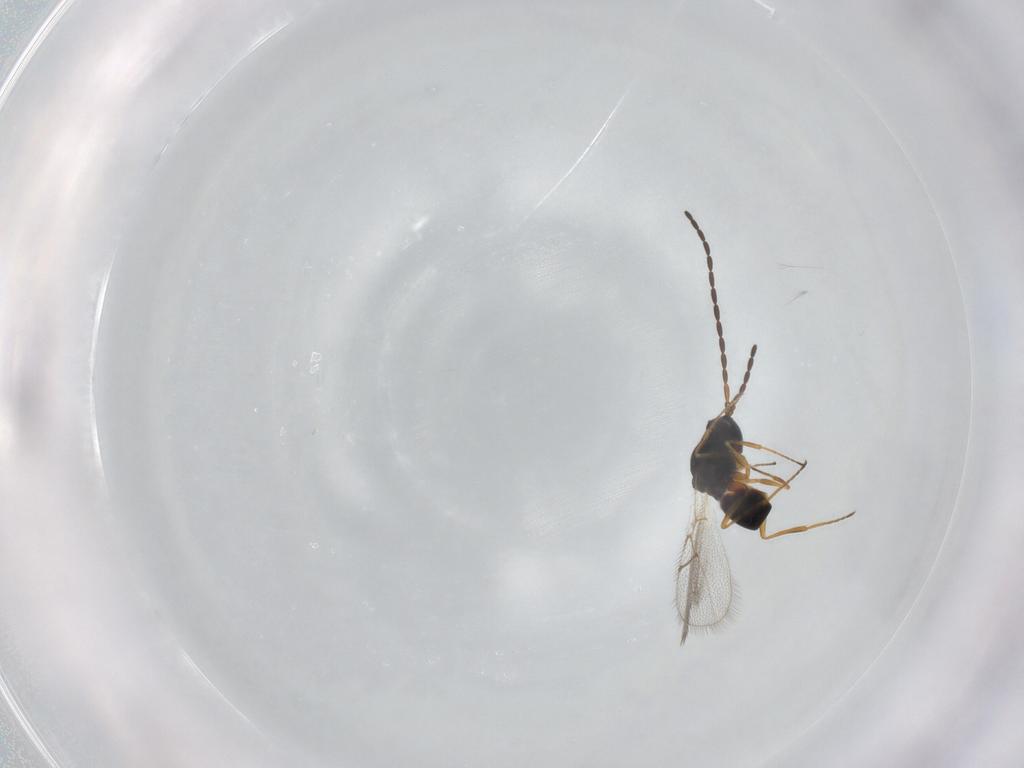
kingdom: Animalia
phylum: Arthropoda
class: Insecta
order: Hymenoptera
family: Figitidae
